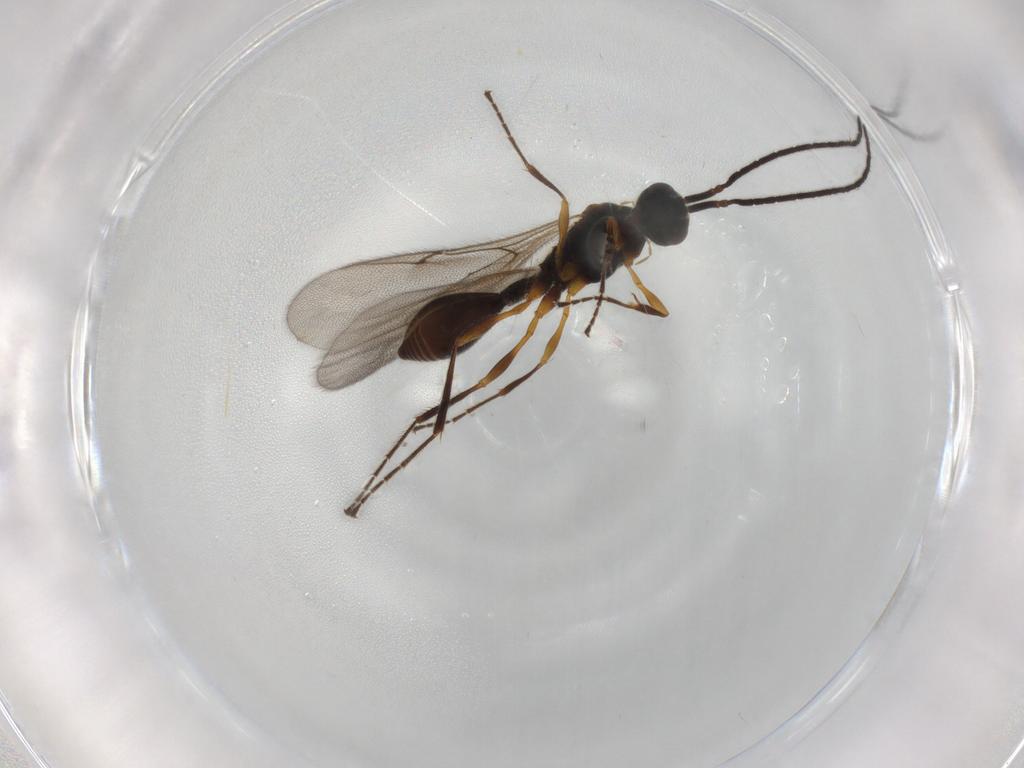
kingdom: Animalia
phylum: Arthropoda
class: Insecta
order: Hymenoptera
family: Diapriidae
